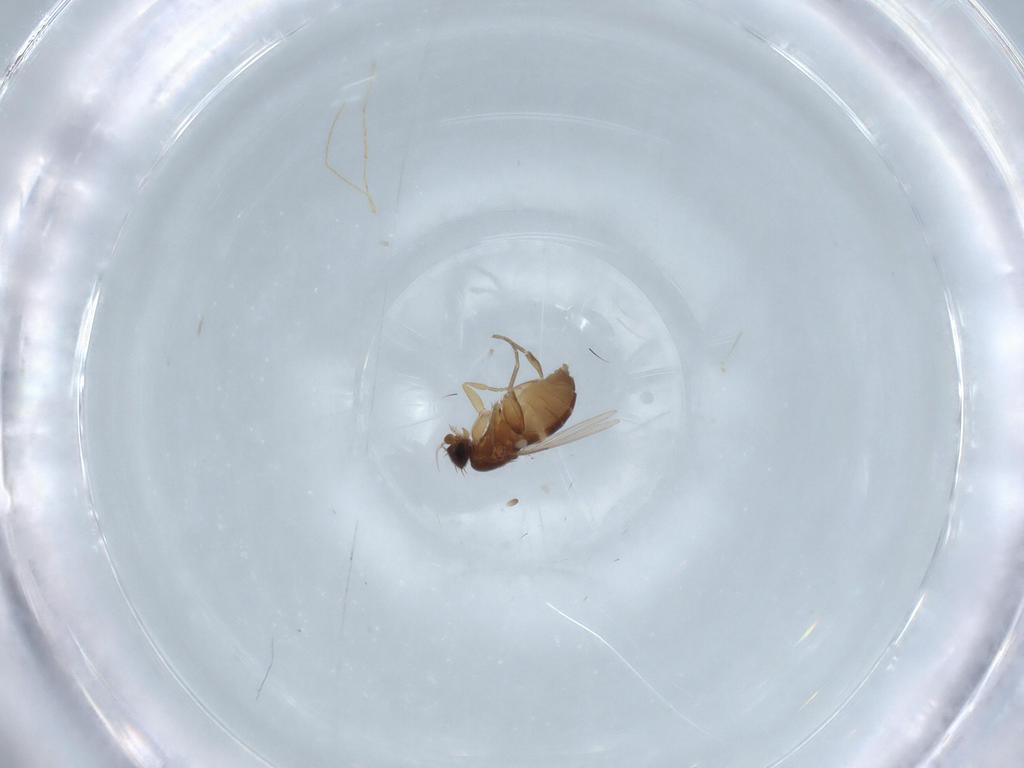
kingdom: Animalia
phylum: Arthropoda
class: Insecta
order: Diptera
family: Phoridae
